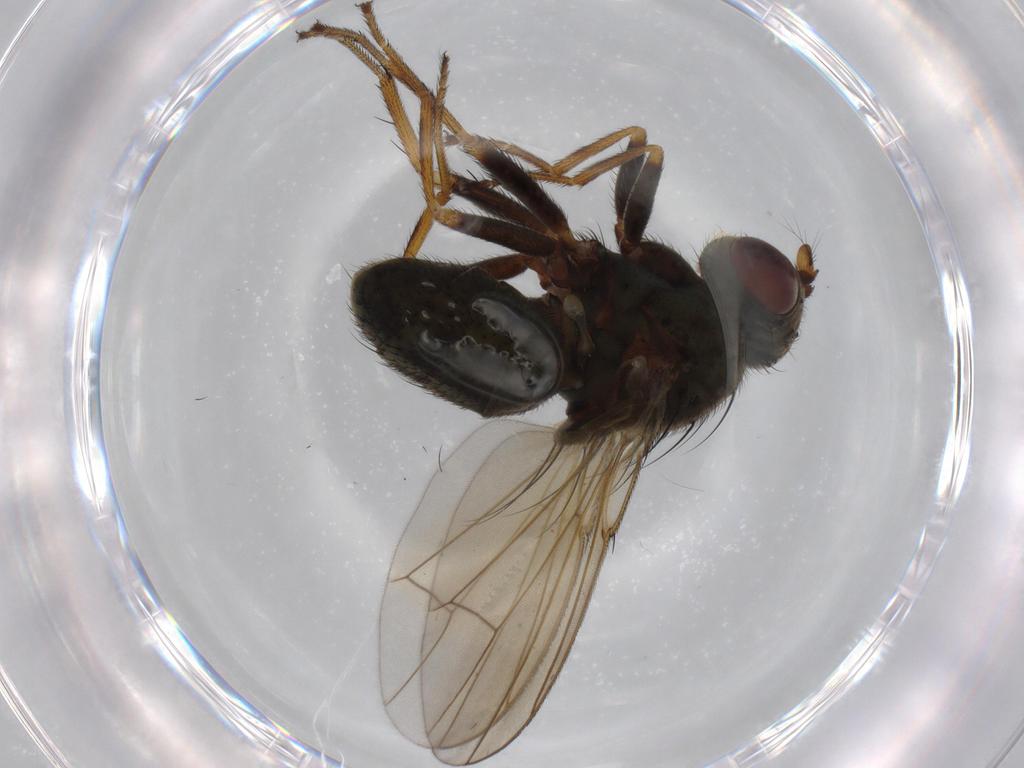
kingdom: Animalia
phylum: Arthropoda
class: Insecta
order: Diptera
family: Ephydridae
